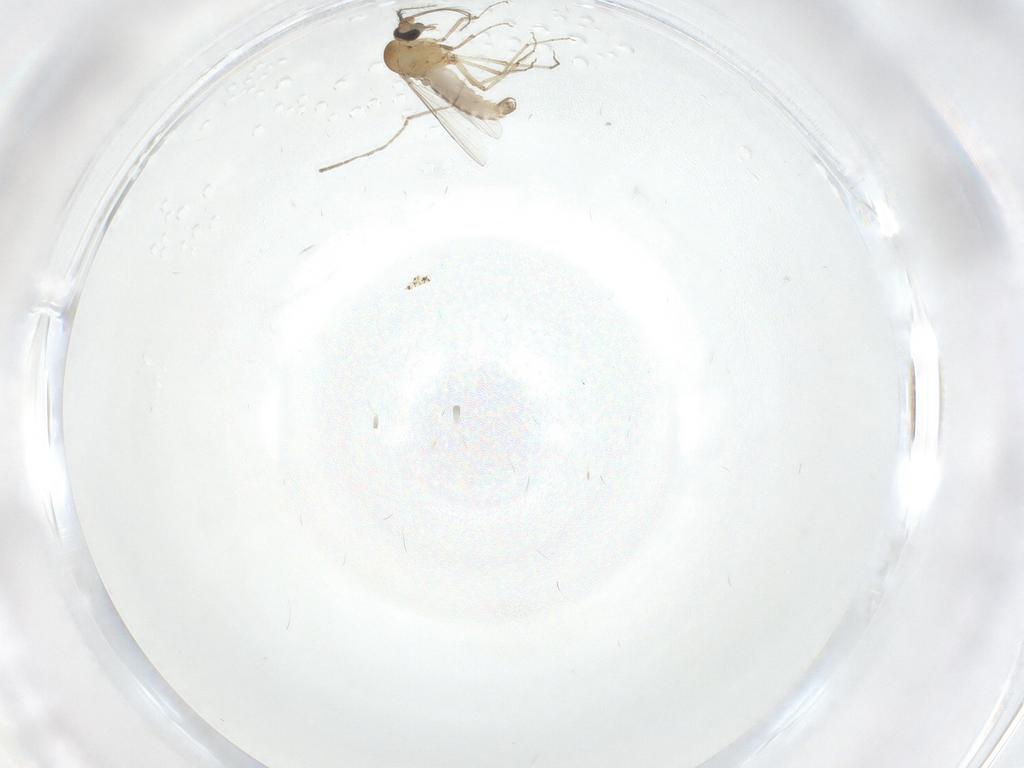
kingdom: Animalia
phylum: Arthropoda
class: Insecta
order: Diptera
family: Chironomidae
